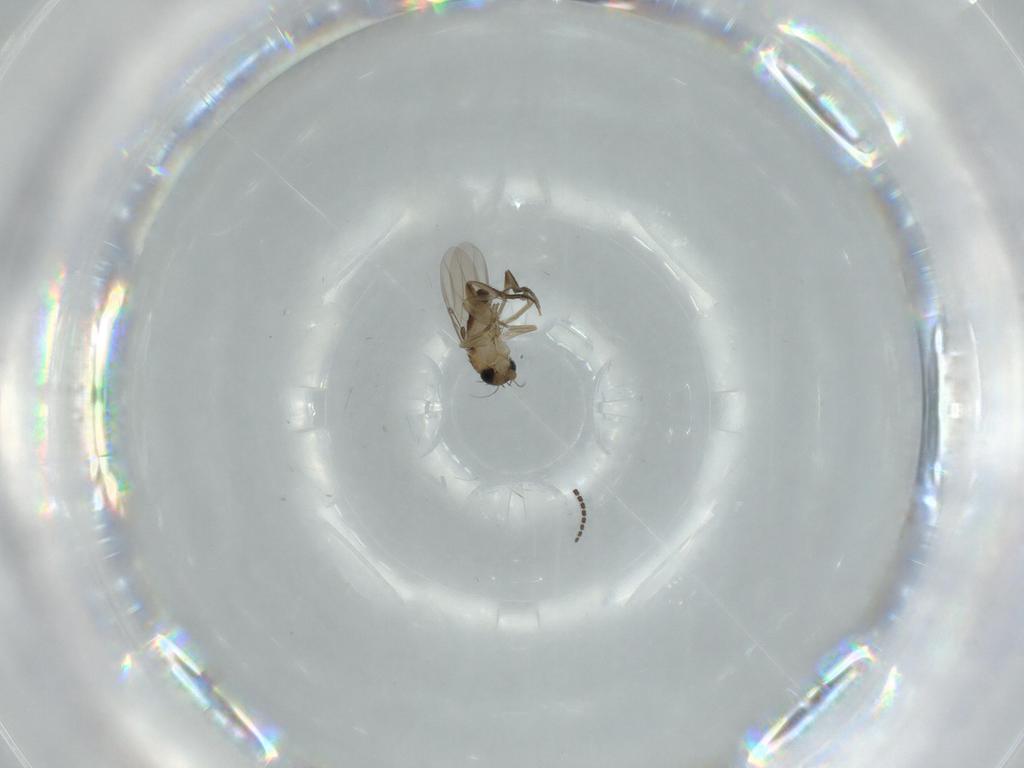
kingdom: Animalia
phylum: Arthropoda
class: Insecta
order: Diptera
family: Phoridae
